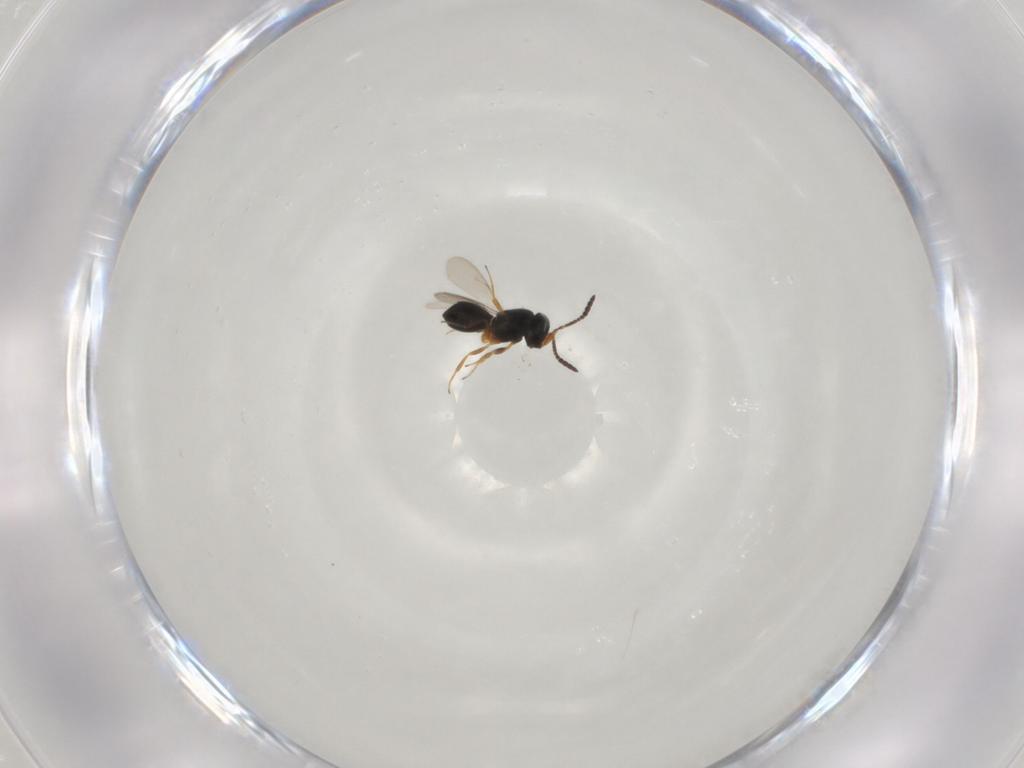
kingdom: Animalia
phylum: Arthropoda
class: Insecta
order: Hymenoptera
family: Scelionidae
